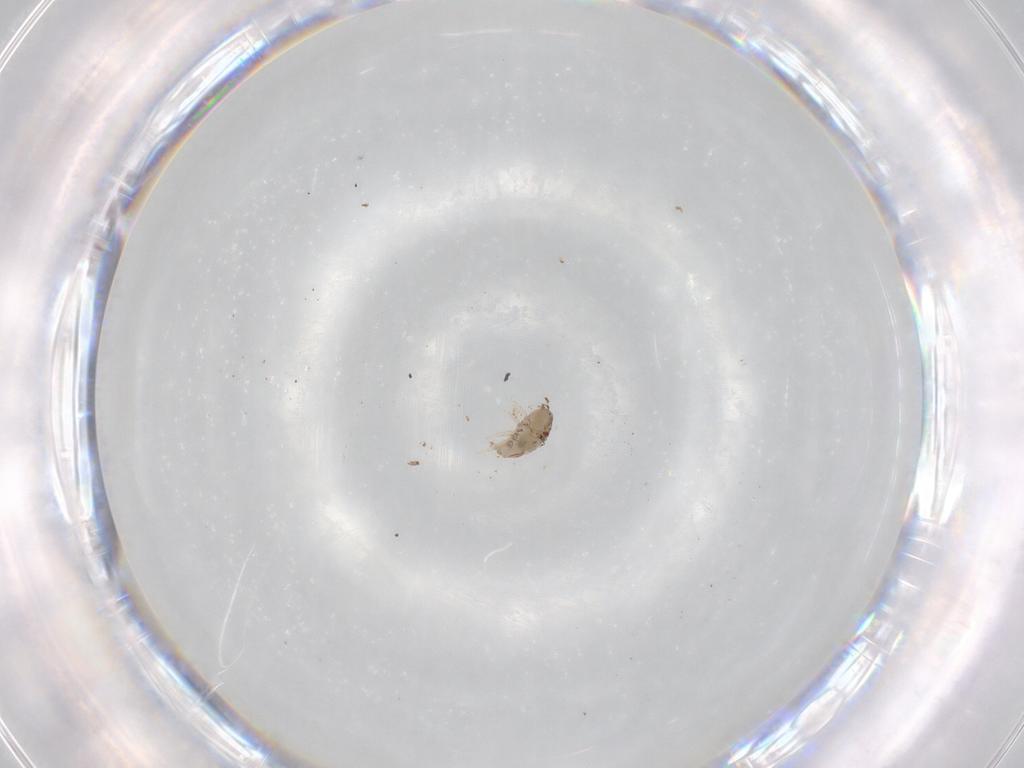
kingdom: Animalia
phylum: Arthropoda
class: Arachnida
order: Sarcoptiformes
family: Crotoniidae
